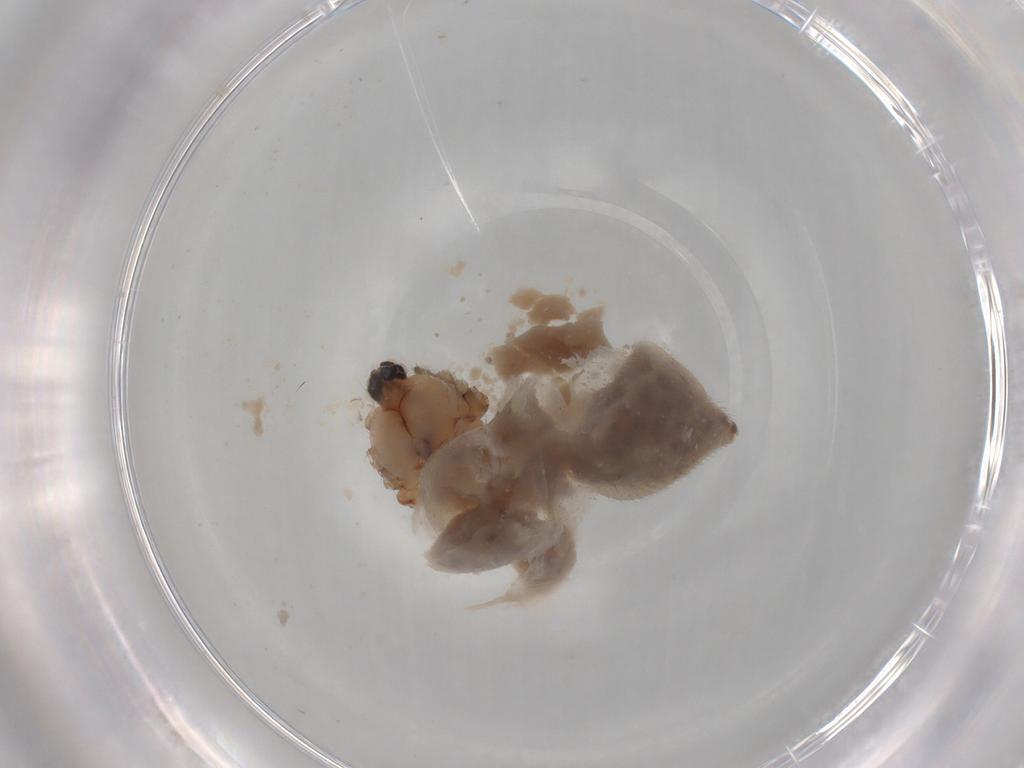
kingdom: Animalia
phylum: Arthropoda
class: Arachnida
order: Araneae
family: Pholcidae
